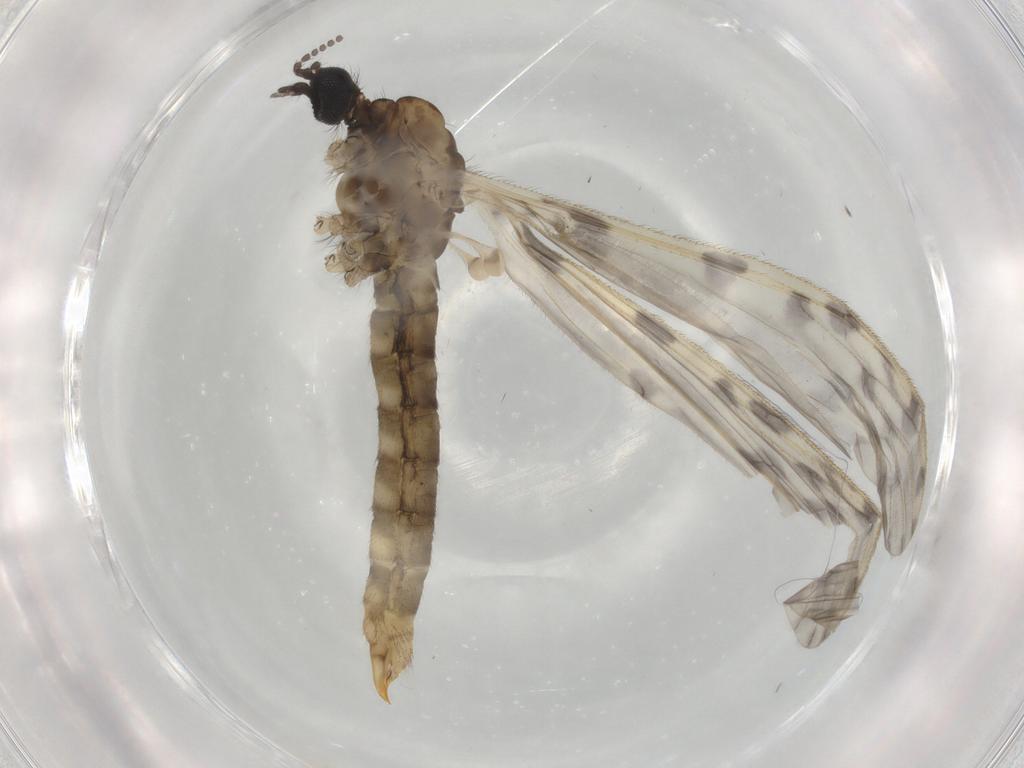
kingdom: Animalia
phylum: Arthropoda
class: Insecta
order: Diptera
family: Limoniidae
